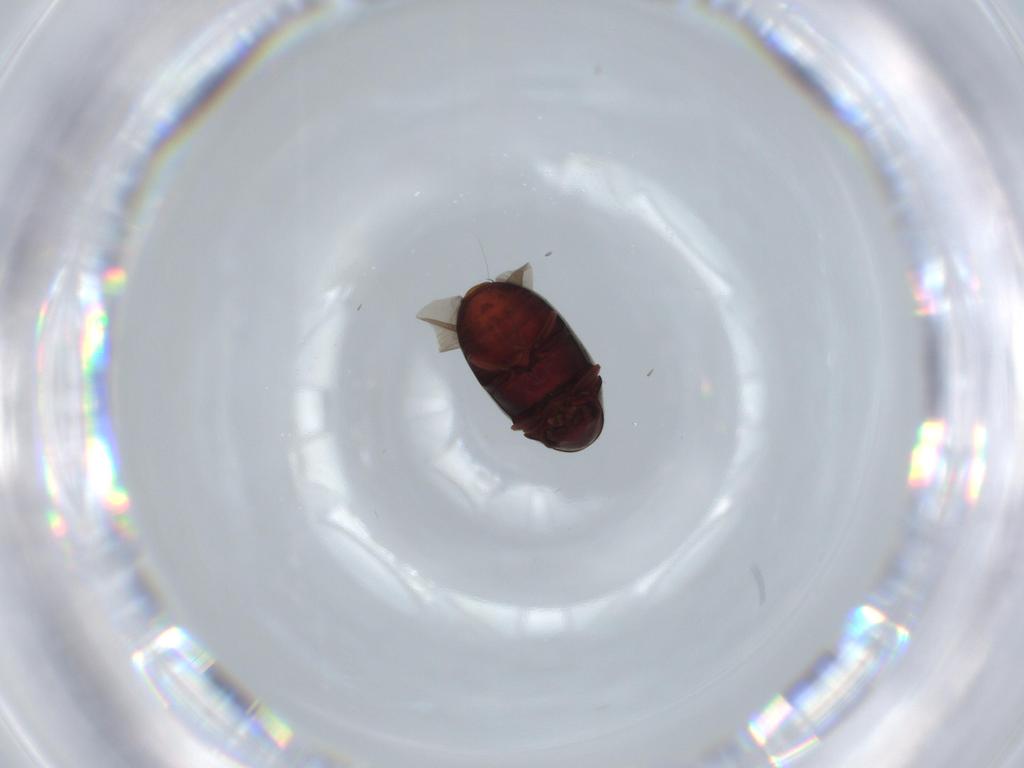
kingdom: Animalia
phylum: Arthropoda
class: Insecta
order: Coleoptera
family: Ptinidae
